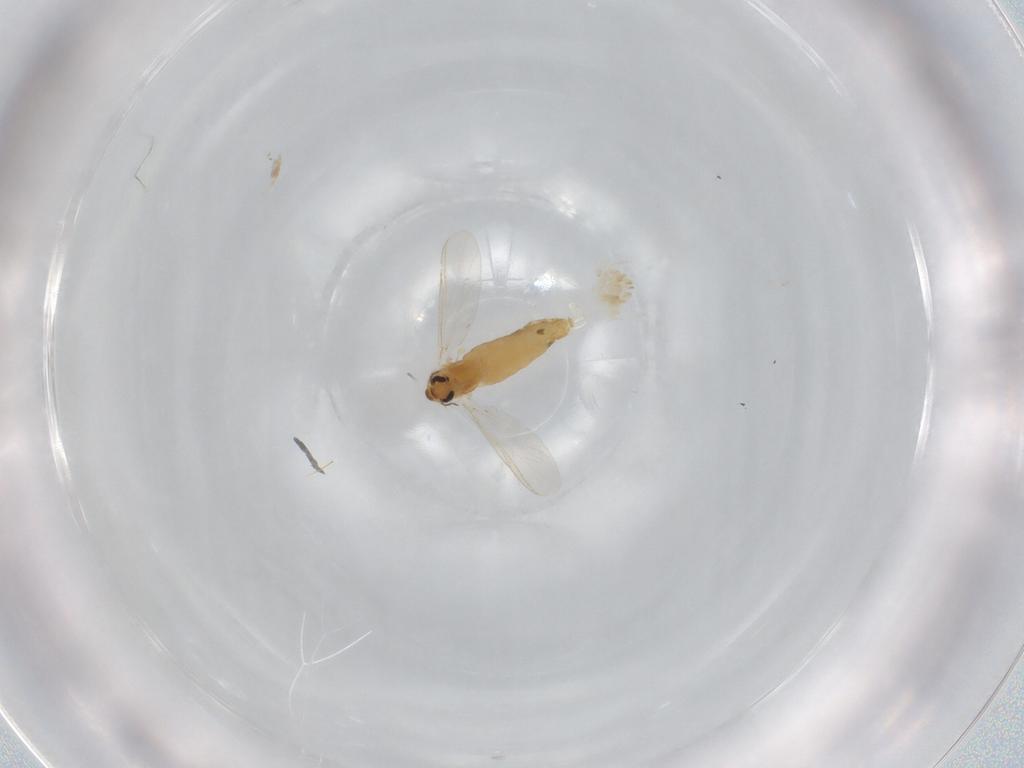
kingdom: Animalia
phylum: Arthropoda
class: Insecta
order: Diptera
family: Chironomidae
